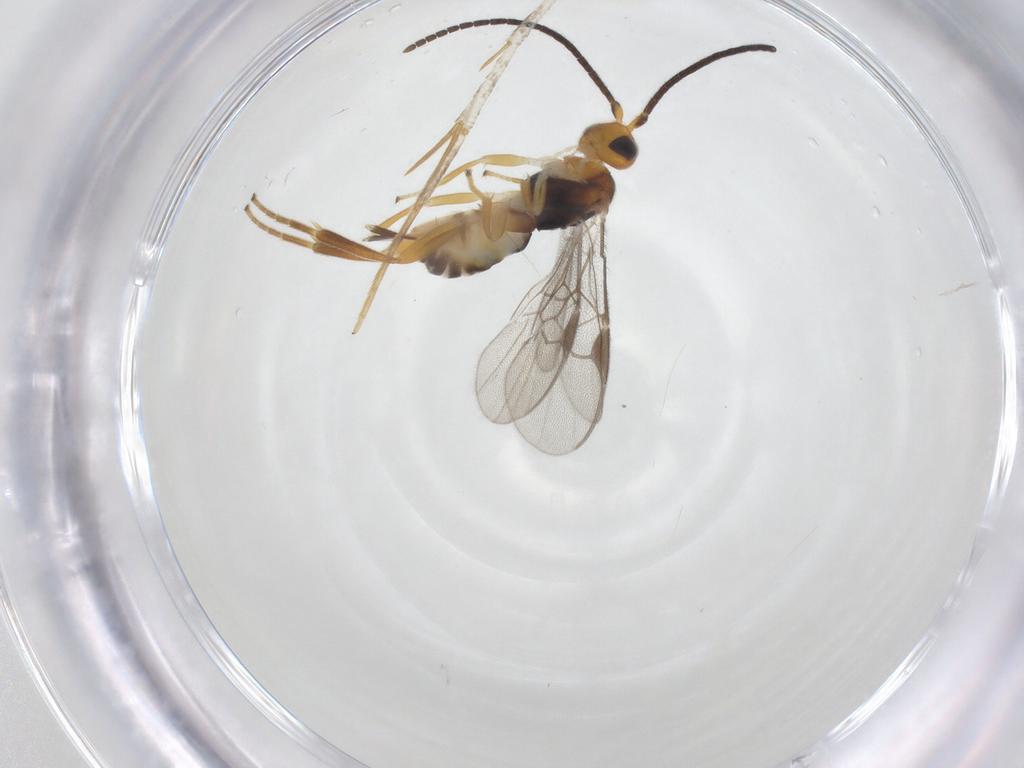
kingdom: Animalia
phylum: Arthropoda
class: Insecta
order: Hymenoptera
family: Braconidae
